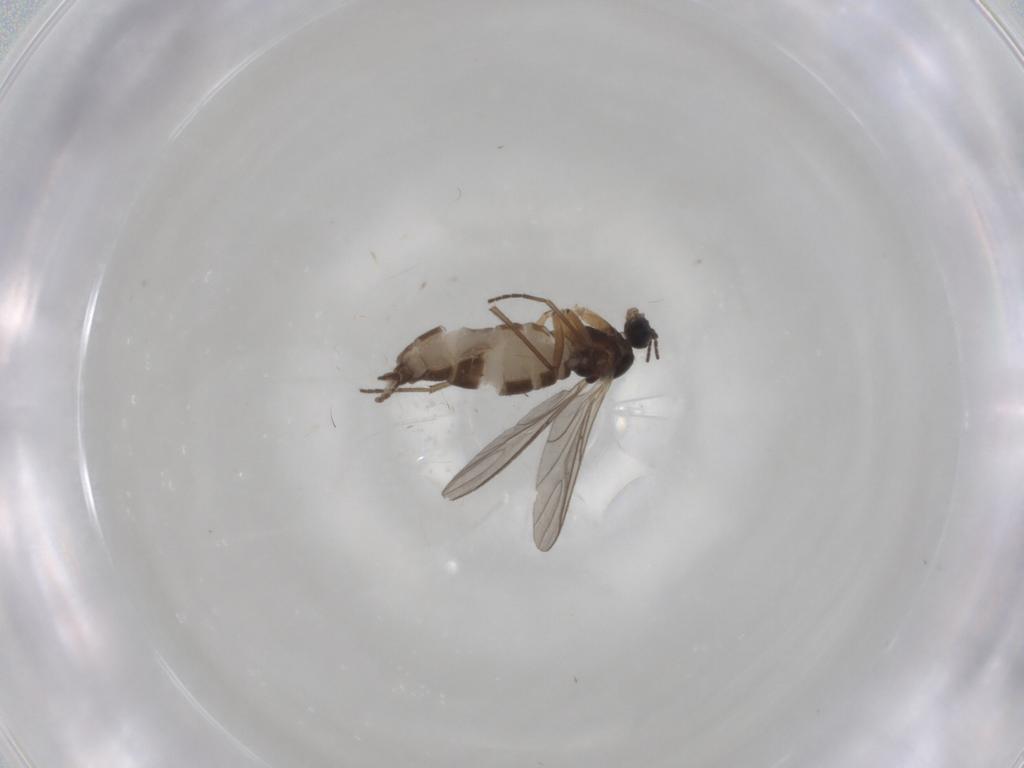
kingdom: Animalia
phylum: Arthropoda
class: Insecta
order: Diptera
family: Sciaridae
